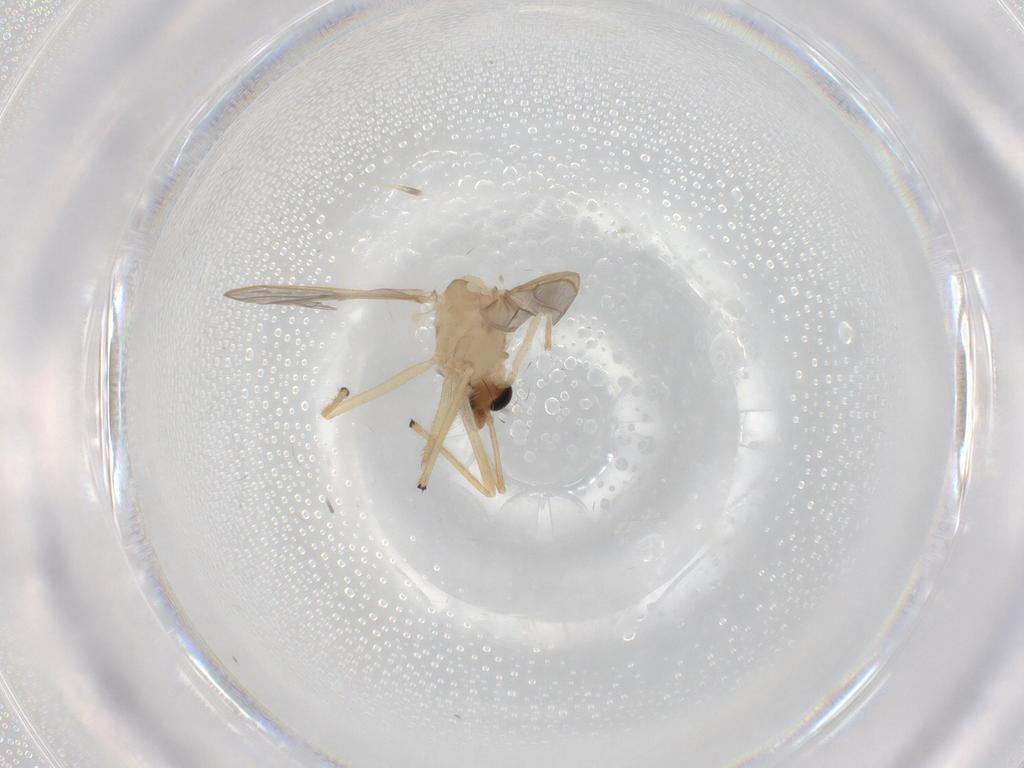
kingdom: Animalia
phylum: Arthropoda
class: Insecta
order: Diptera
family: Chironomidae
